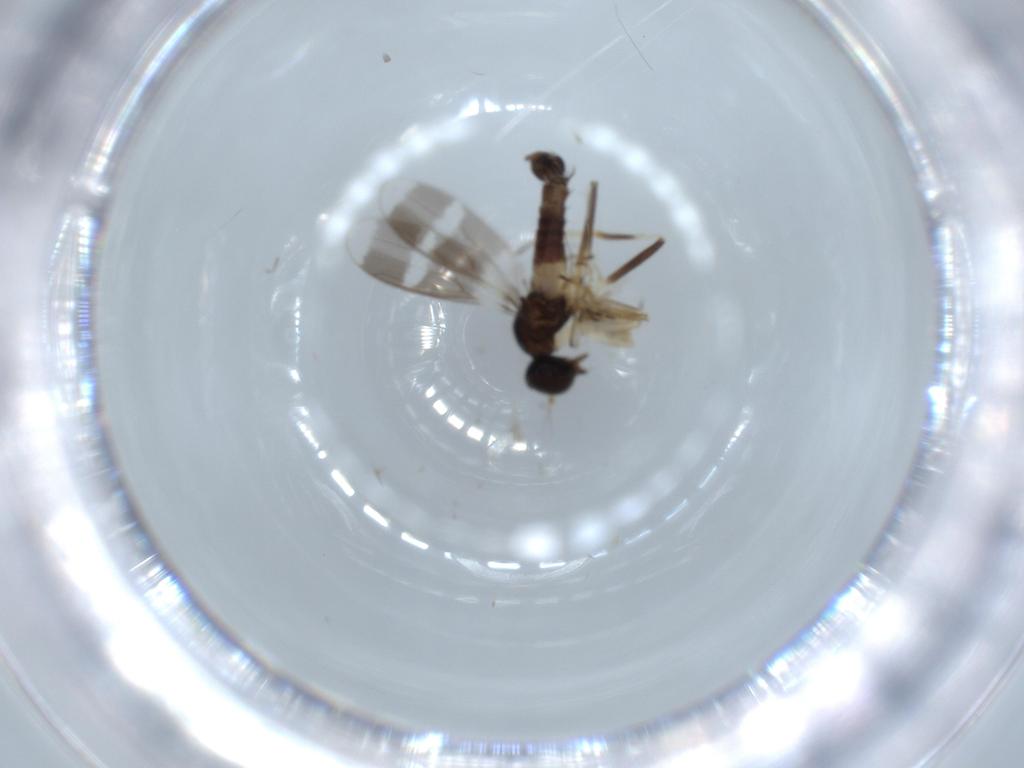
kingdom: Animalia
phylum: Arthropoda
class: Insecta
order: Diptera
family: Hybotidae
